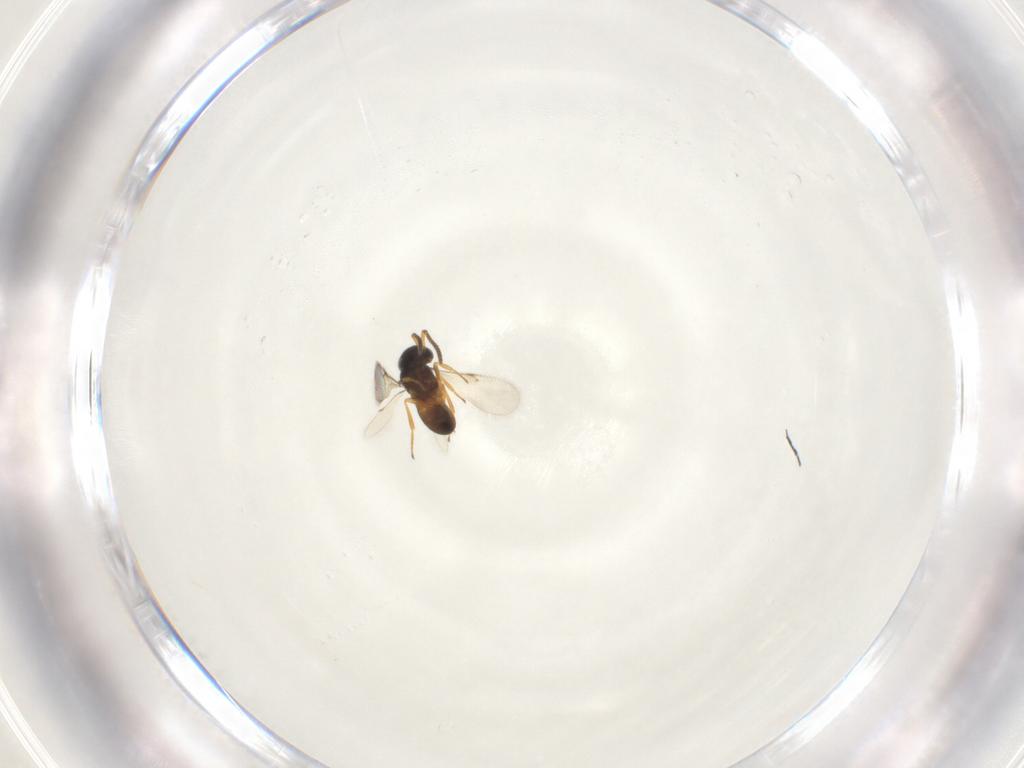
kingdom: Animalia
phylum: Arthropoda
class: Insecta
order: Hymenoptera
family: Scelionidae
